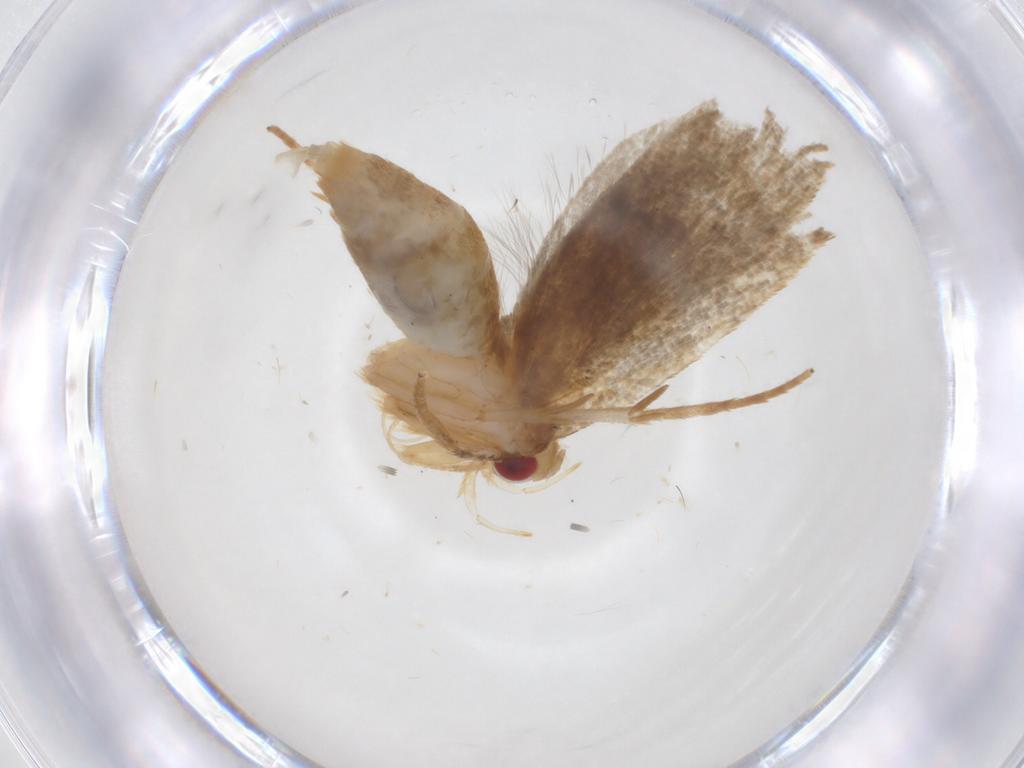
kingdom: Animalia
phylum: Arthropoda
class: Insecta
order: Lepidoptera
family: Oecophoridae
